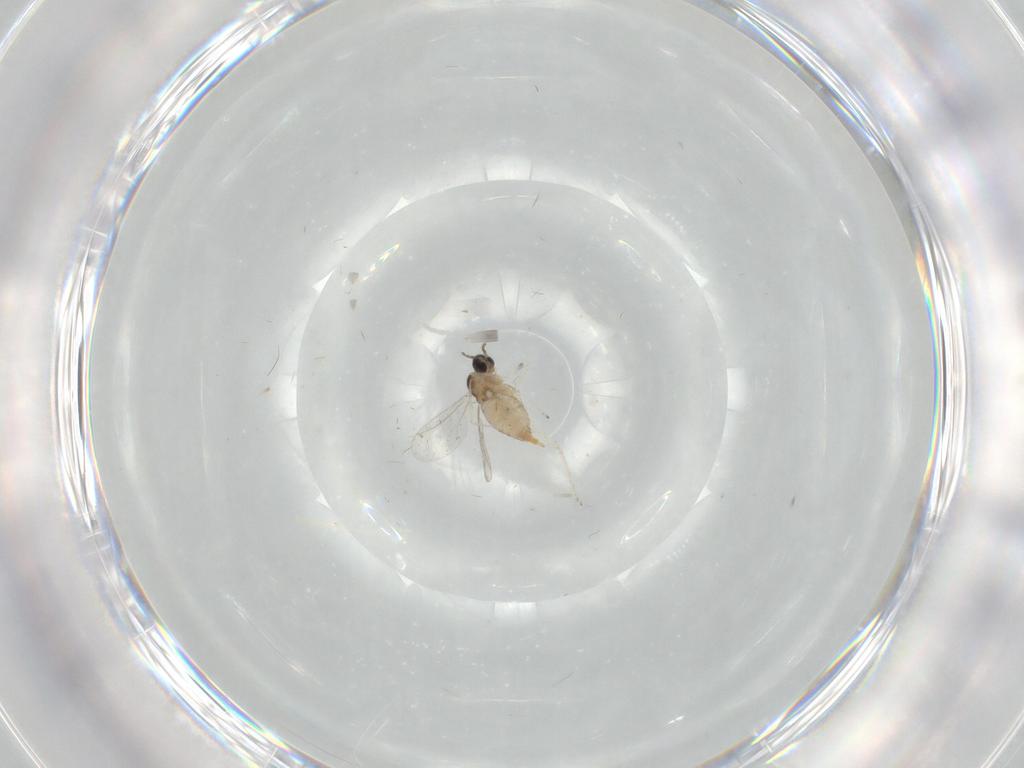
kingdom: Animalia
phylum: Arthropoda
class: Insecta
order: Diptera
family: Cecidomyiidae
